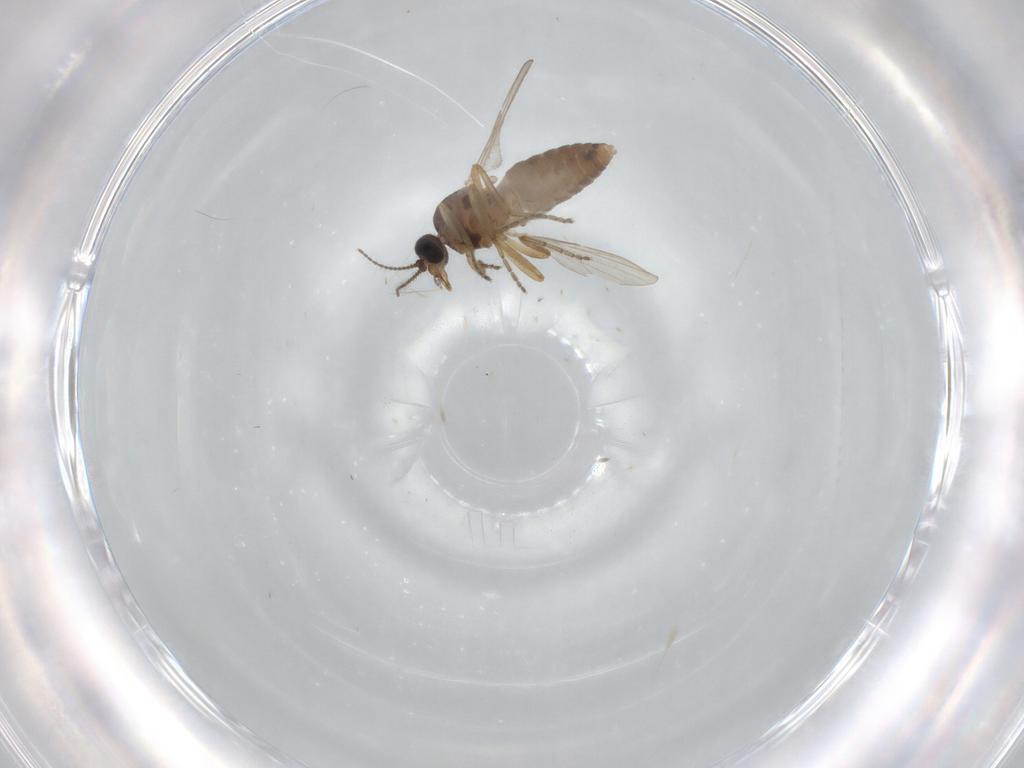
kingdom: Animalia
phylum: Arthropoda
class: Insecta
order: Diptera
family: Ceratopogonidae
